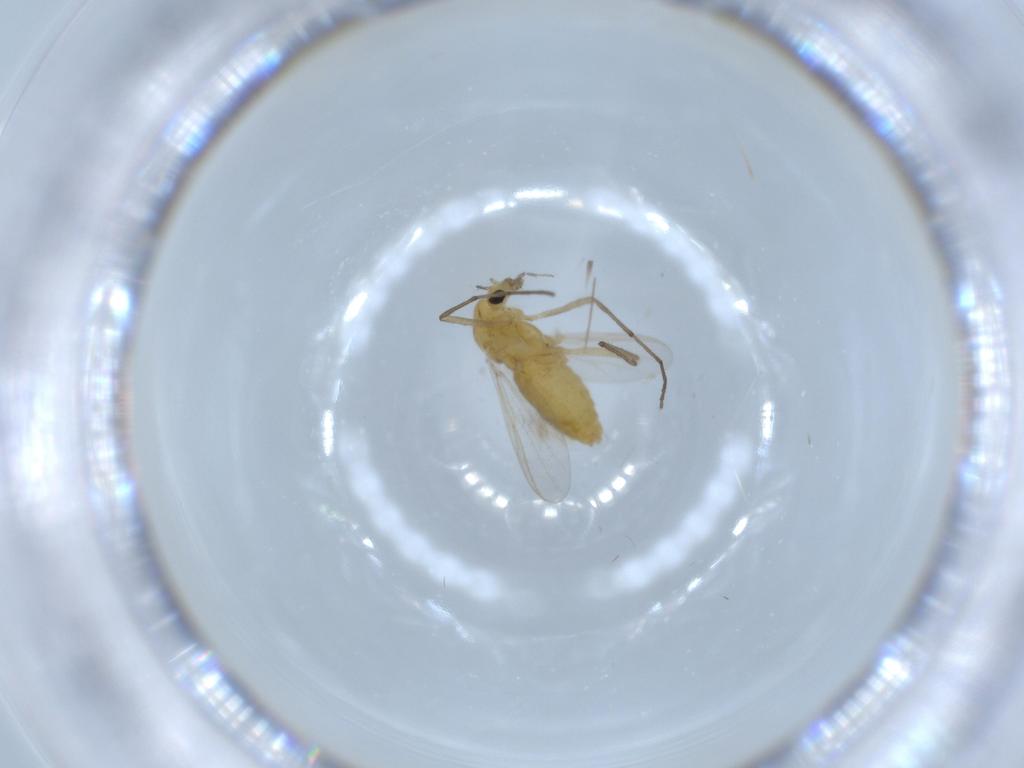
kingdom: Animalia
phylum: Arthropoda
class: Insecta
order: Diptera
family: Chironomidae
